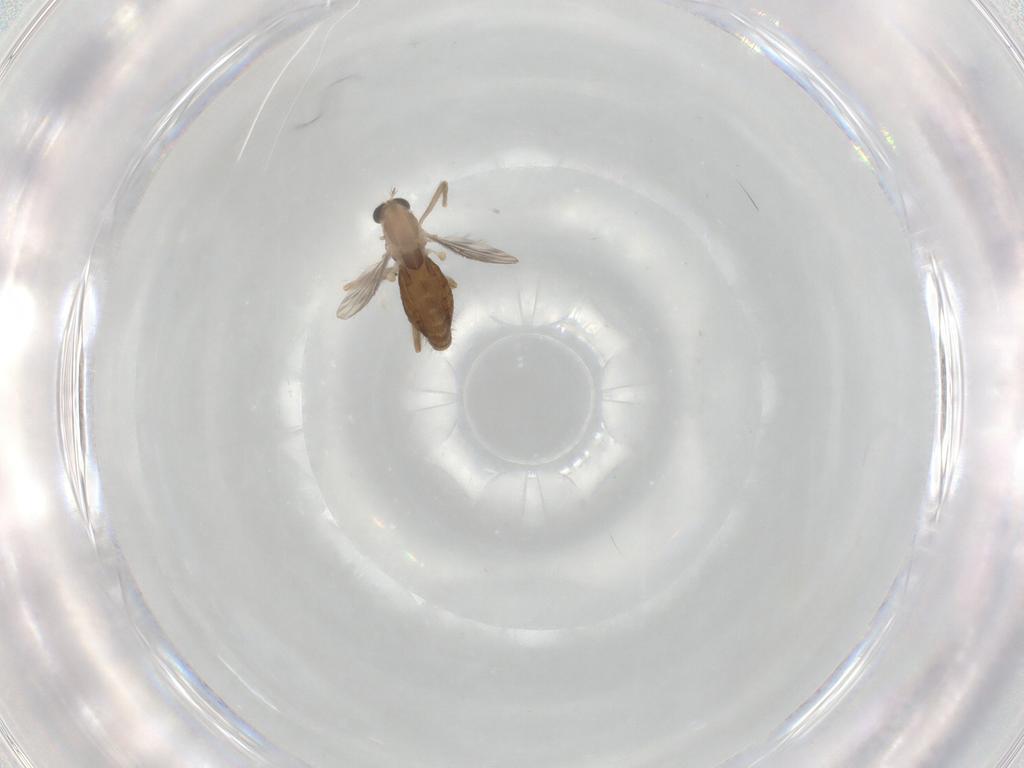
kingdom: Animalia
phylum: Arthropoda
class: Insecta
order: Diptera
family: Chironomidae
